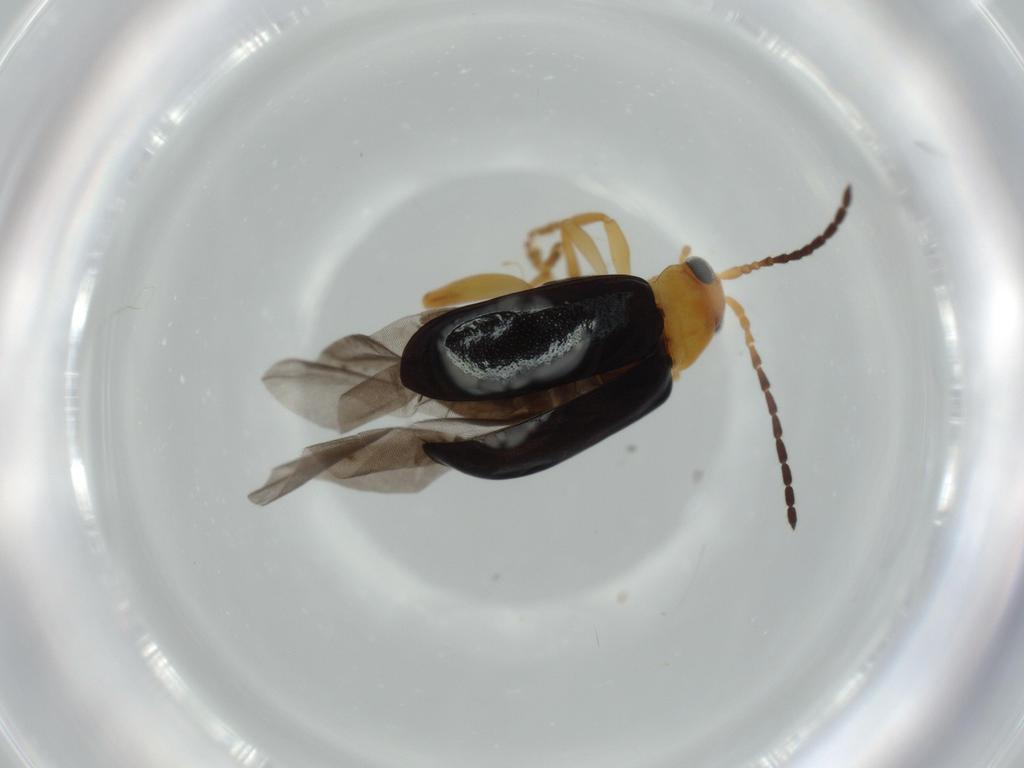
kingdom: Animalia
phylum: Arthropoda
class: Insecta
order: Coleoptera
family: Chrysomelidae
